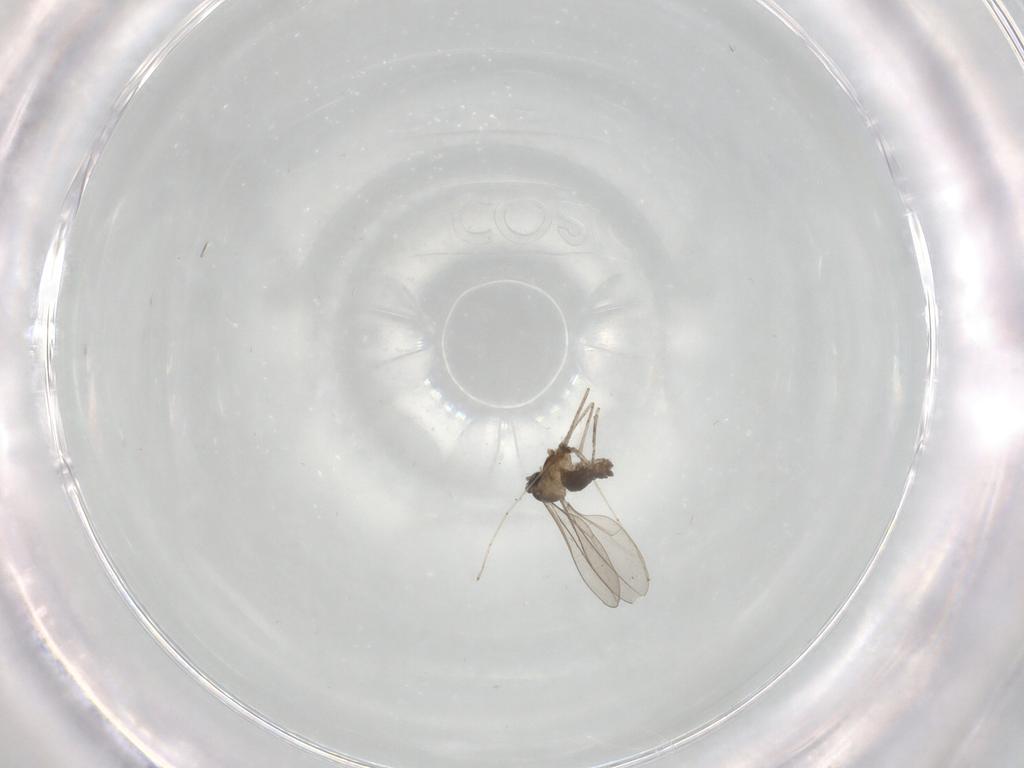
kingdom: Animalia
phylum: Arthropoda
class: Insecta
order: Diptera
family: Cecidomyiidae
